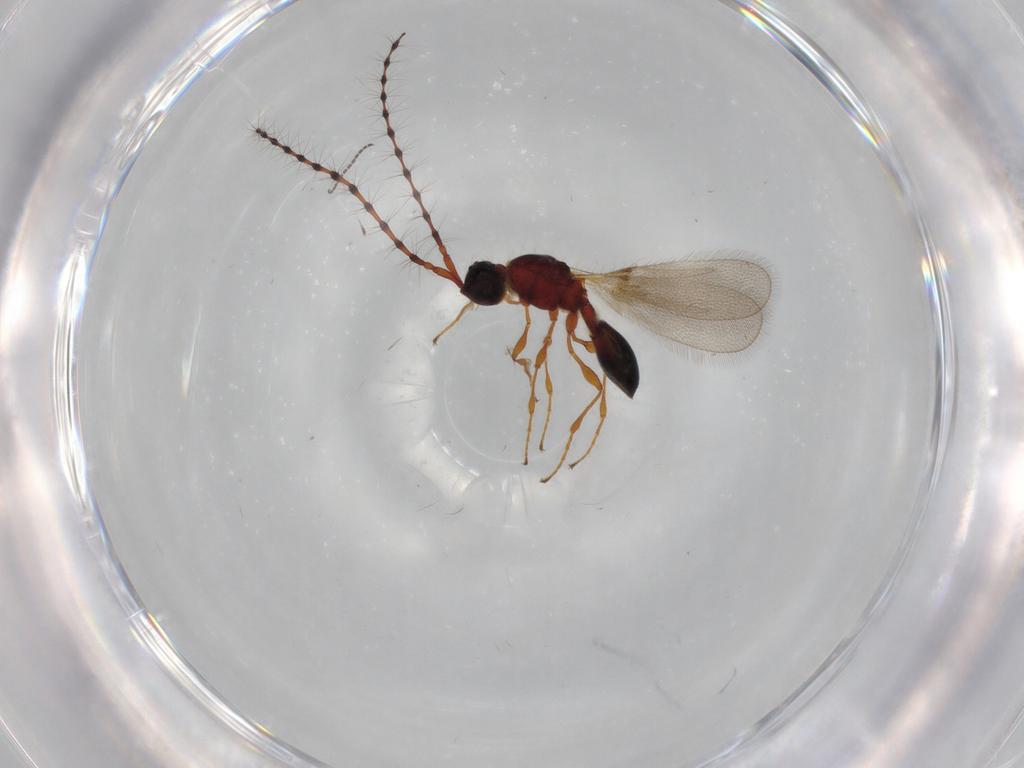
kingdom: Animalia
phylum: Arthropoda
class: Insecta
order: Hymenoptera
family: Diapriidae
